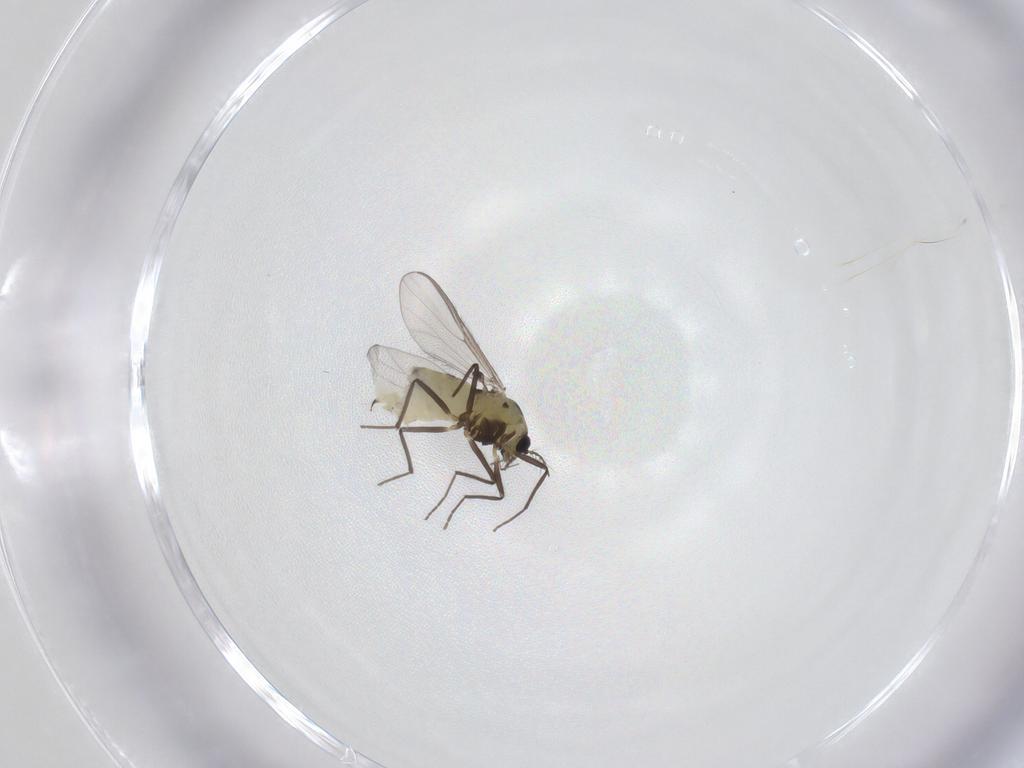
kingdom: Animalia
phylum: Arthropoda
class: Insecta
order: Diptera
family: Chironomidae
